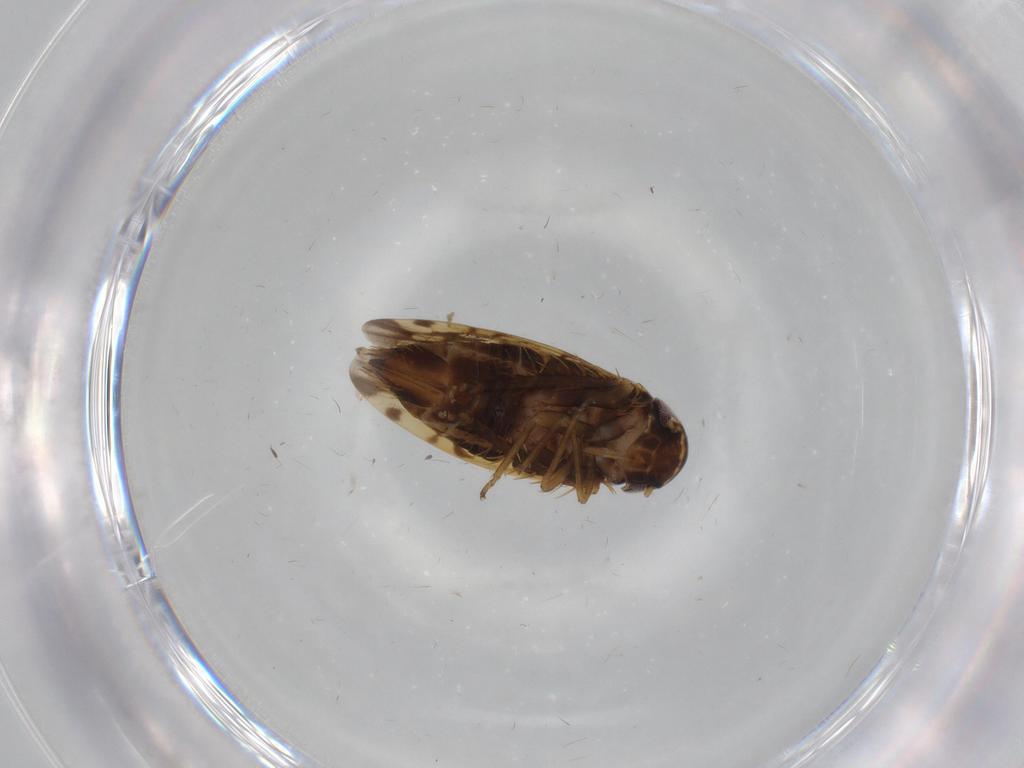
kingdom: Animalia
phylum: Arthropoda
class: Insecta
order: Hemiptera
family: Cicadellidae
